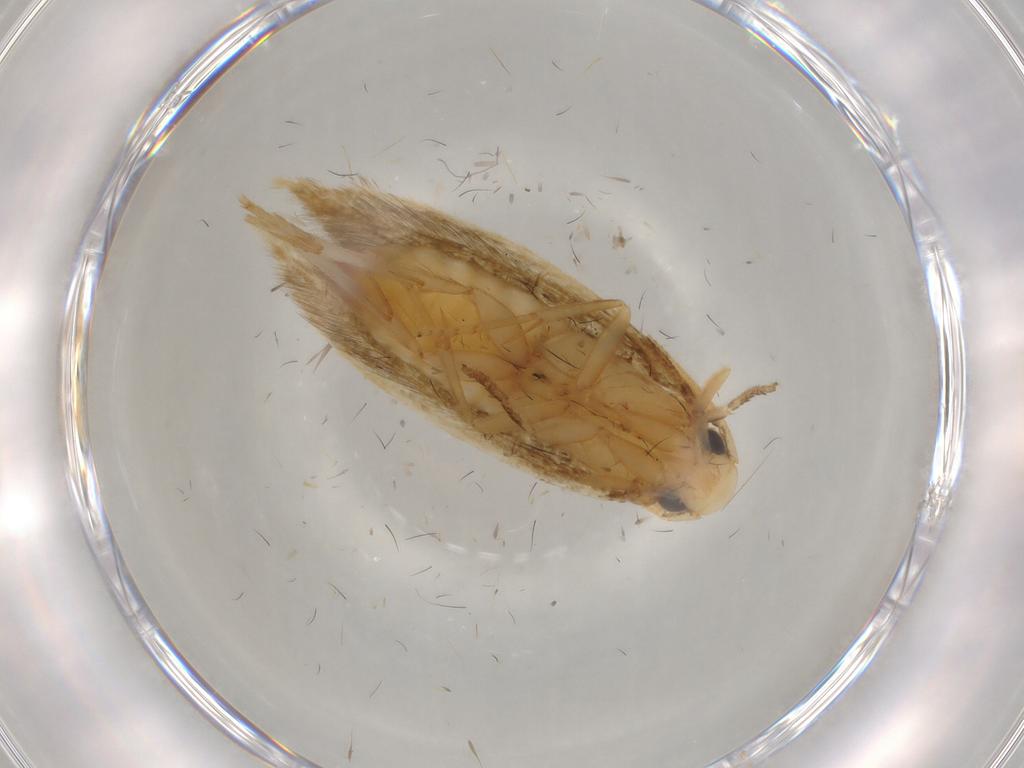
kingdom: Animalia
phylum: Arthropoda
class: Insecta
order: Lepidoptera
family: Tineidae
